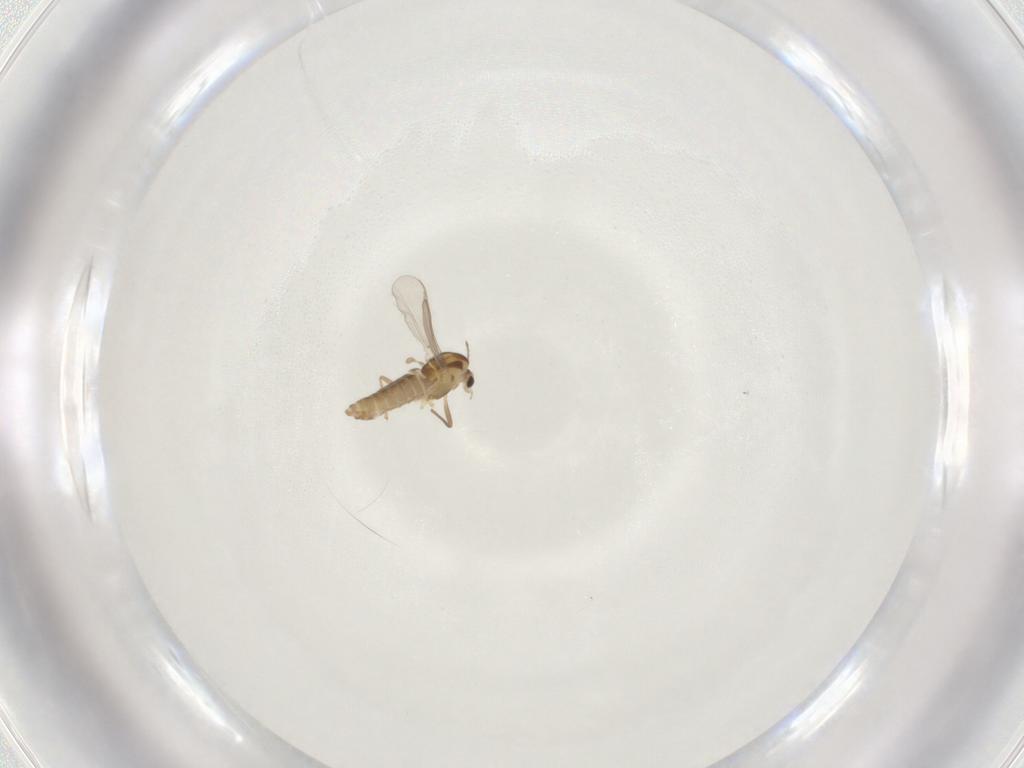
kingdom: Animalia
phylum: Arthropoda
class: Insecta
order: Diptera
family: Chironomidae
